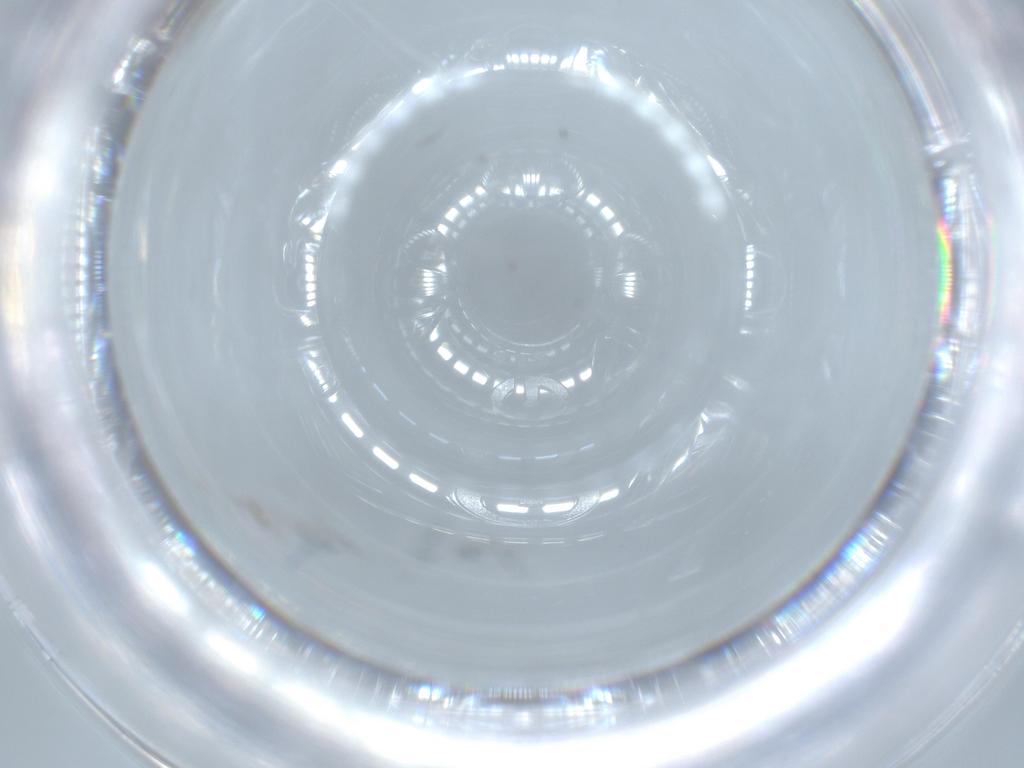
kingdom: Animalia
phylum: Arthropoda
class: Insecta
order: Hymenoptera
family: Scelionidae
